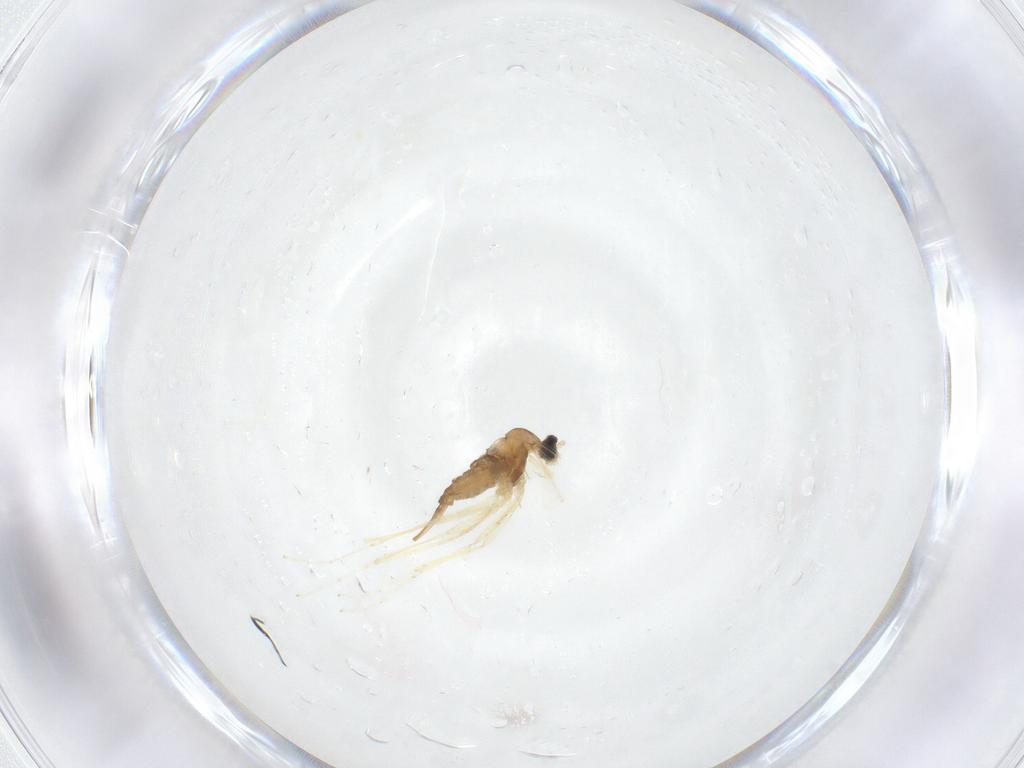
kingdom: Animalia
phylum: Arthropoda
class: Insecta
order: Diptera
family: Cecidomyiidae
